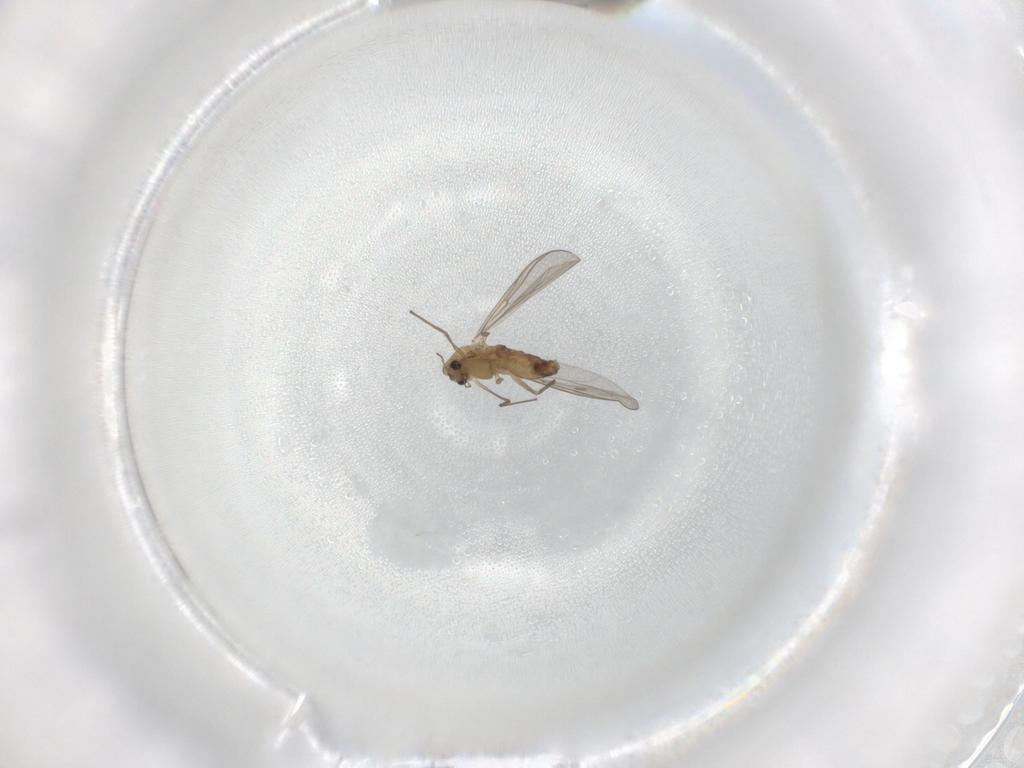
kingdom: Animalia
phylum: Arthropoda
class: Insecta
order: Diptera
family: Chironomidae
